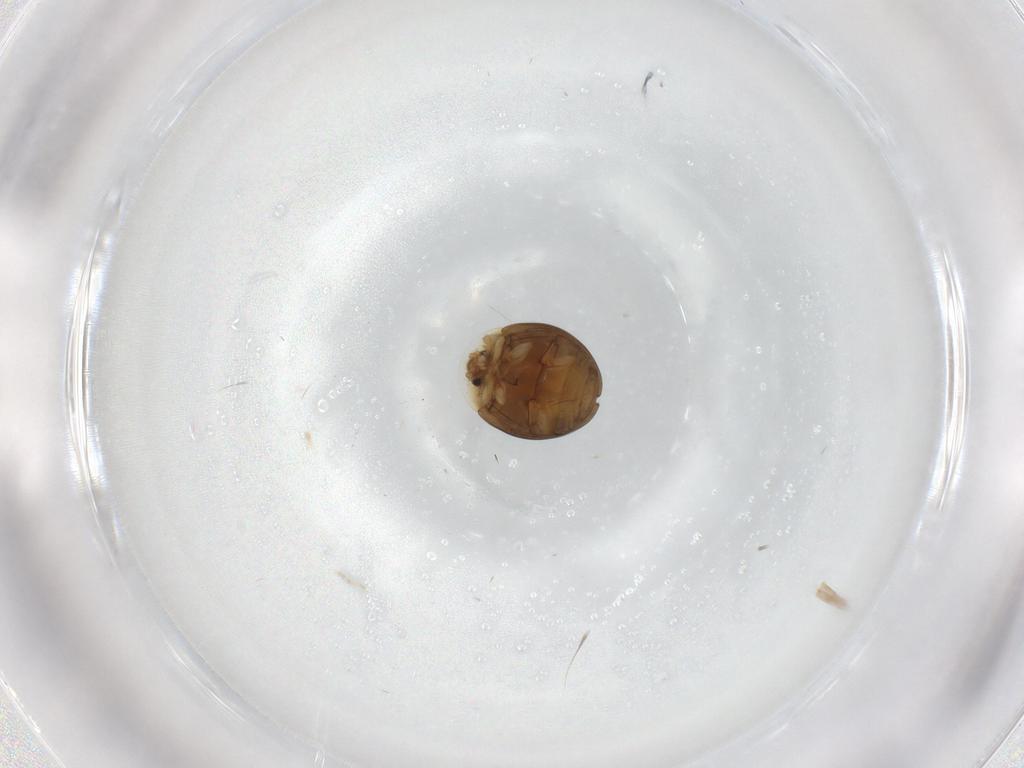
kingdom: Animalia
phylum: Arthropoda
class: Insecta
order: Coleoptera
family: Corylophidae
